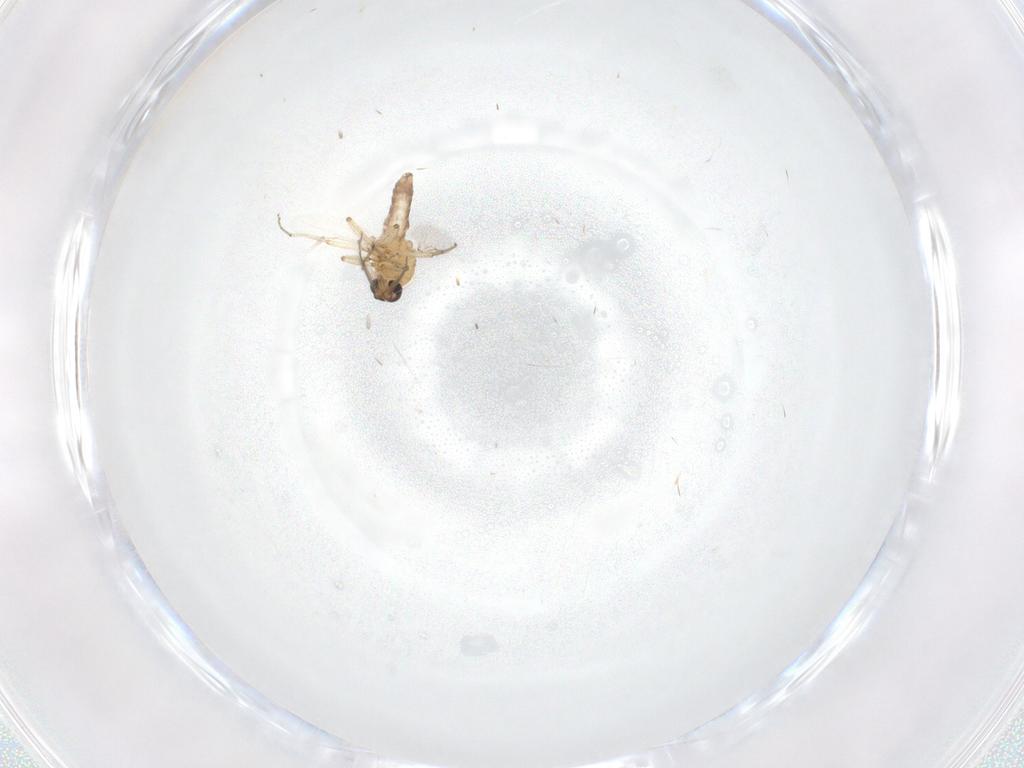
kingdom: Animalia
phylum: Arthropoda
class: Insecta
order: Diptera
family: Ceratopogonidae
